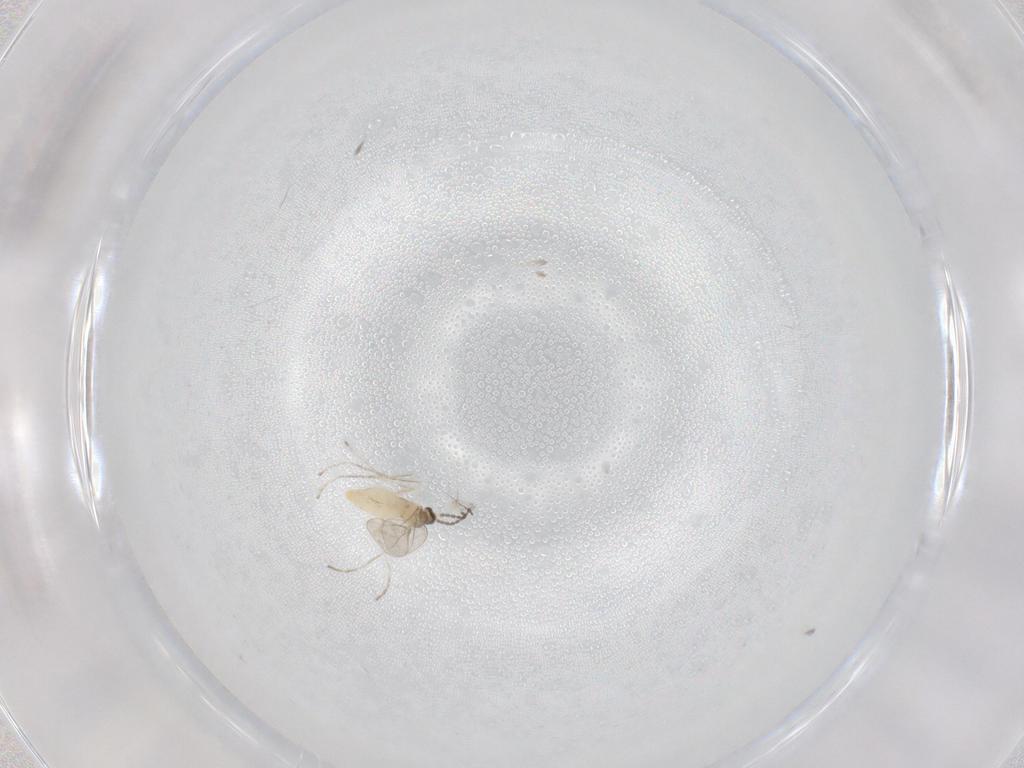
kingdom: Animalia
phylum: Arthropoda
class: Insecta
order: Diptera
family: Cecidomyiidae
